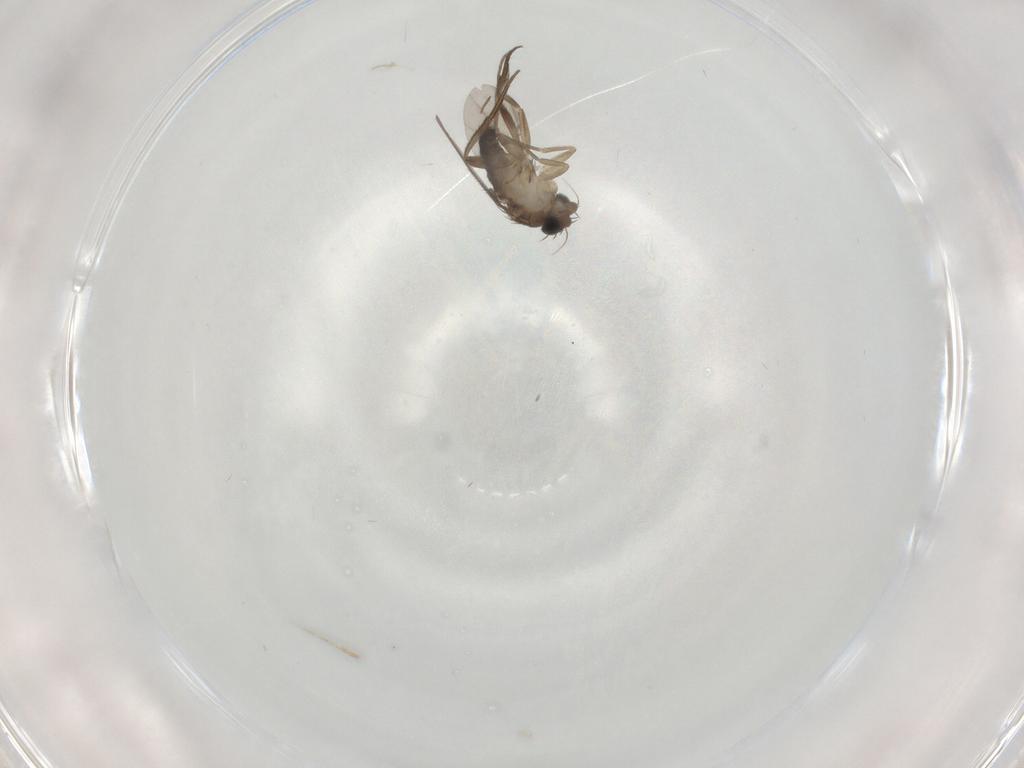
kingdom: Animalia
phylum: Arthropoda
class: Insecta
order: Diptera
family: Phoridae
